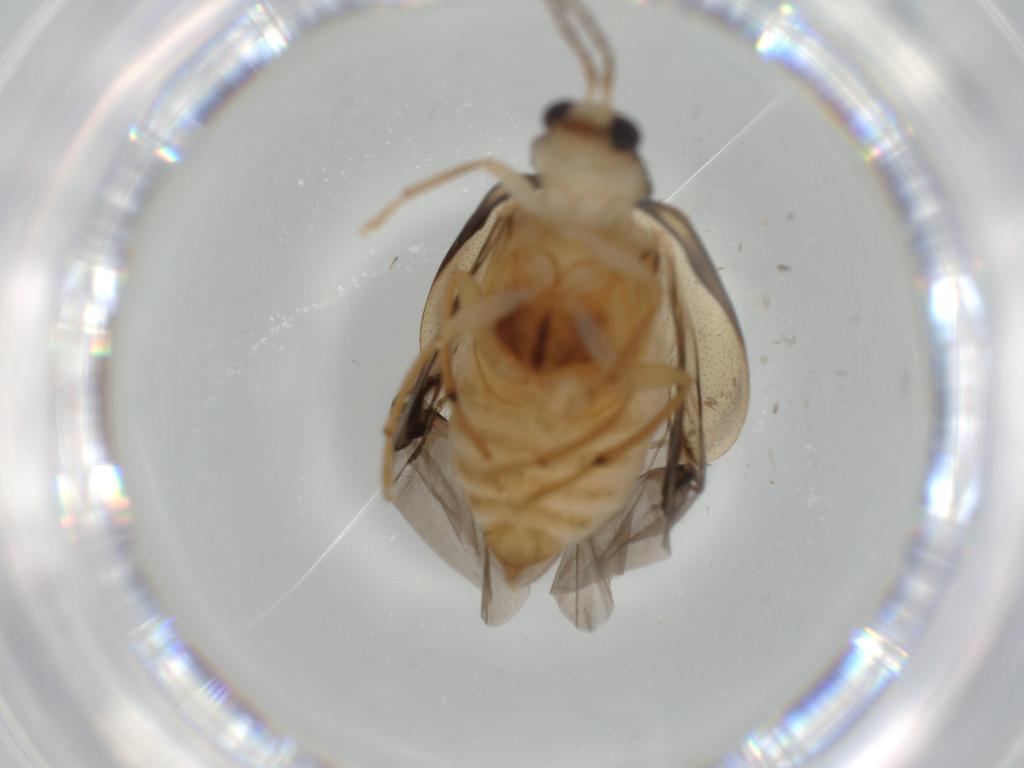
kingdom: Animalia
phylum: Arthropoda
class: Insecta
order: Coleoptera
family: Chrysomelidae
